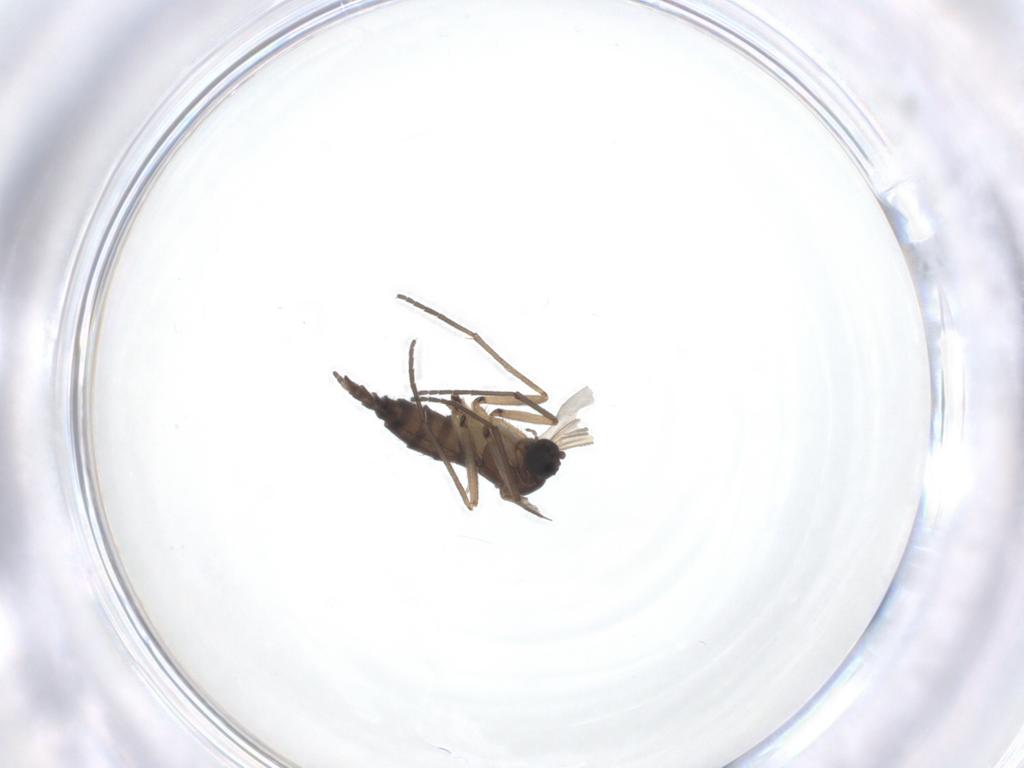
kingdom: Animalia
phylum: Arthropoda
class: Insecta
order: Diptera
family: Sciaridae
